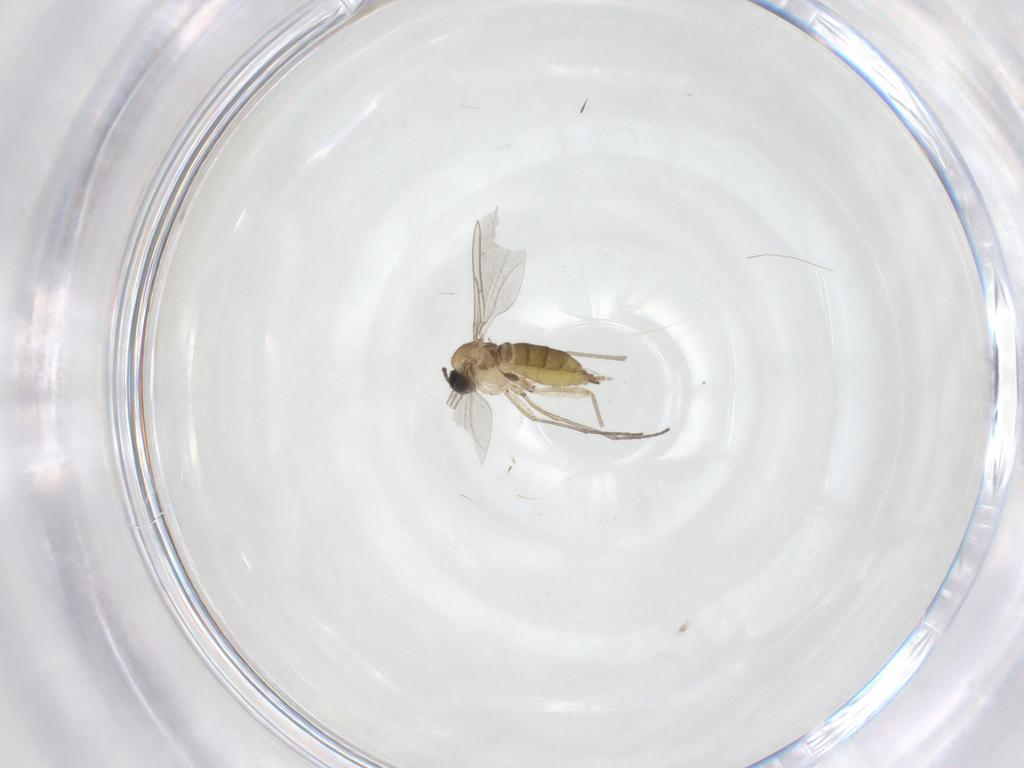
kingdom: Animalia
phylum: Arthropoda
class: Insecta
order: Diptera
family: Sciaridae
